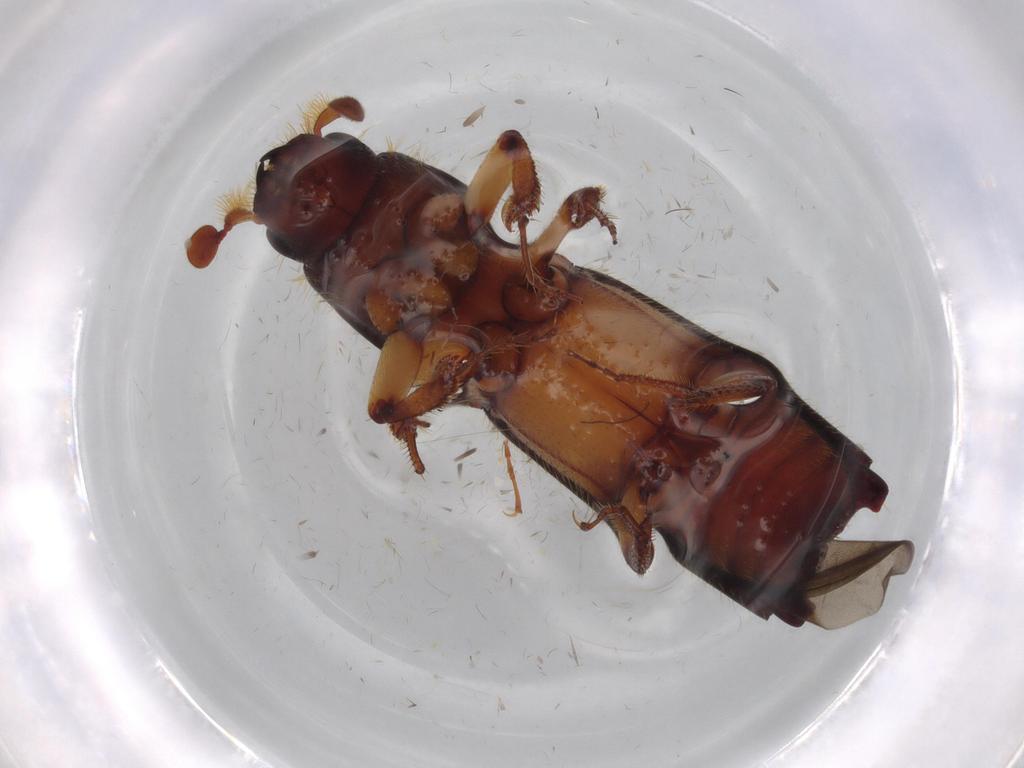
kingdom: Animalia
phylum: Arthropoda
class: Insecta
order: Coleoptera
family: Curculionidae
